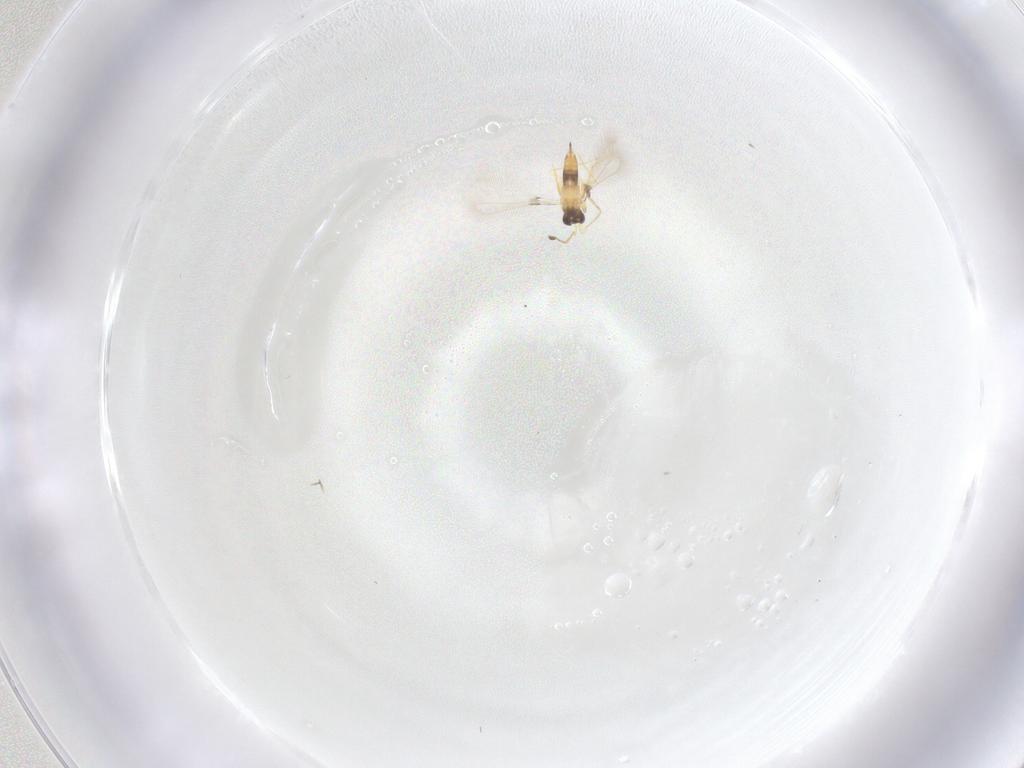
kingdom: Animalia
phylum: Arthropoda
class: Insecta
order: Hymenoptera
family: Mymaridae
